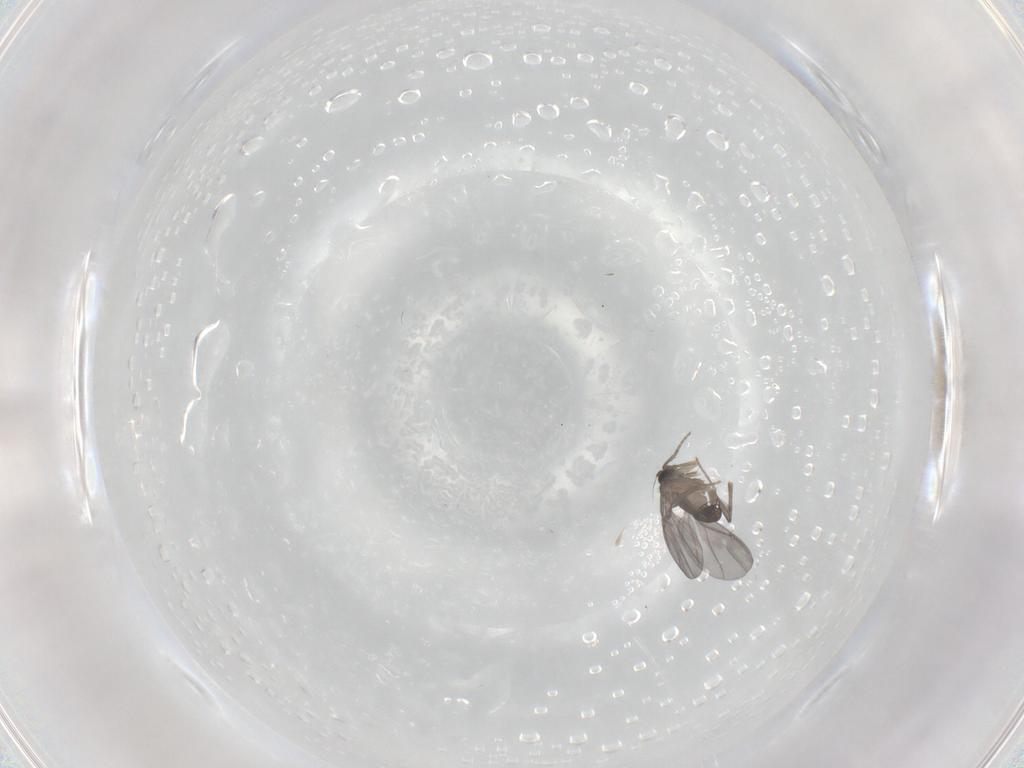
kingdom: Animalia
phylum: Arthropoda
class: Insecta
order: Diptera
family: Phoridae
